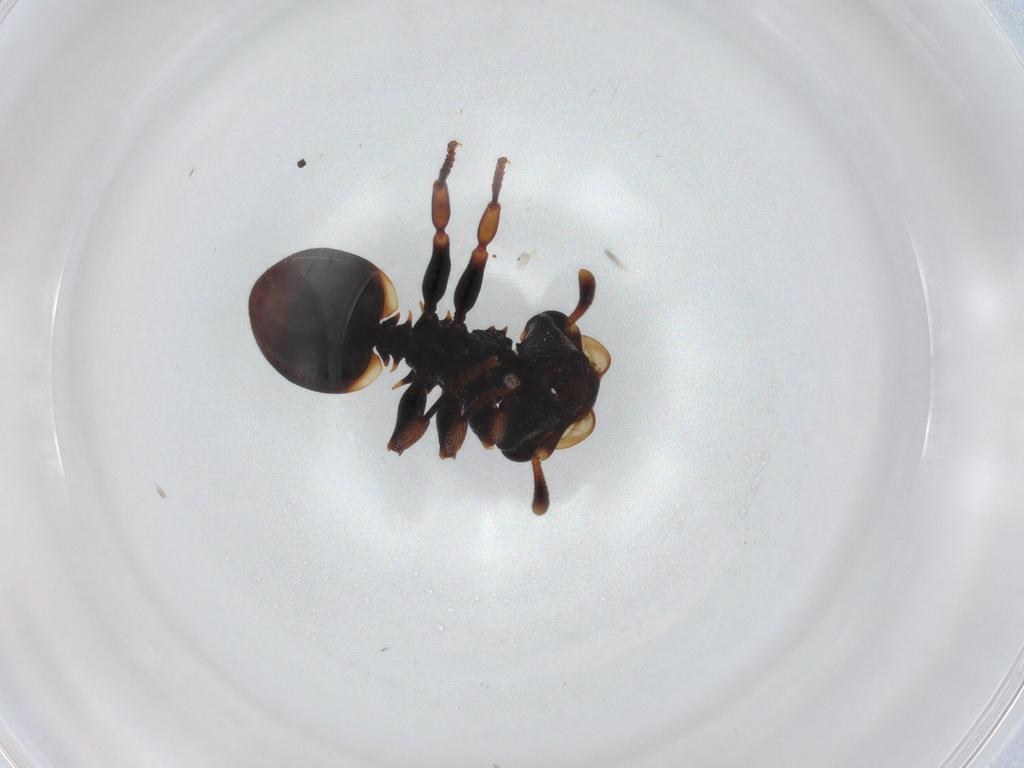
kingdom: Animalia
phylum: Arthropoda
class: Insecta
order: Hymenoptera
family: Formicidae
